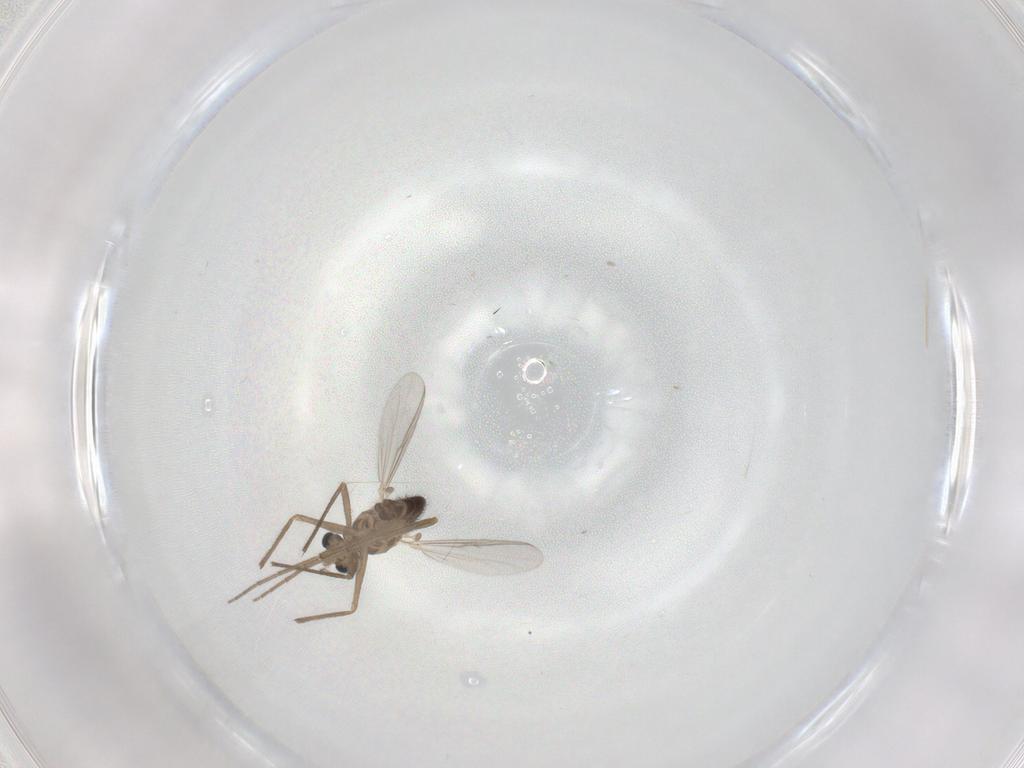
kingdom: Animalia
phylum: Arthropoda
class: Insecta
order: Diptera
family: Chironomidae
